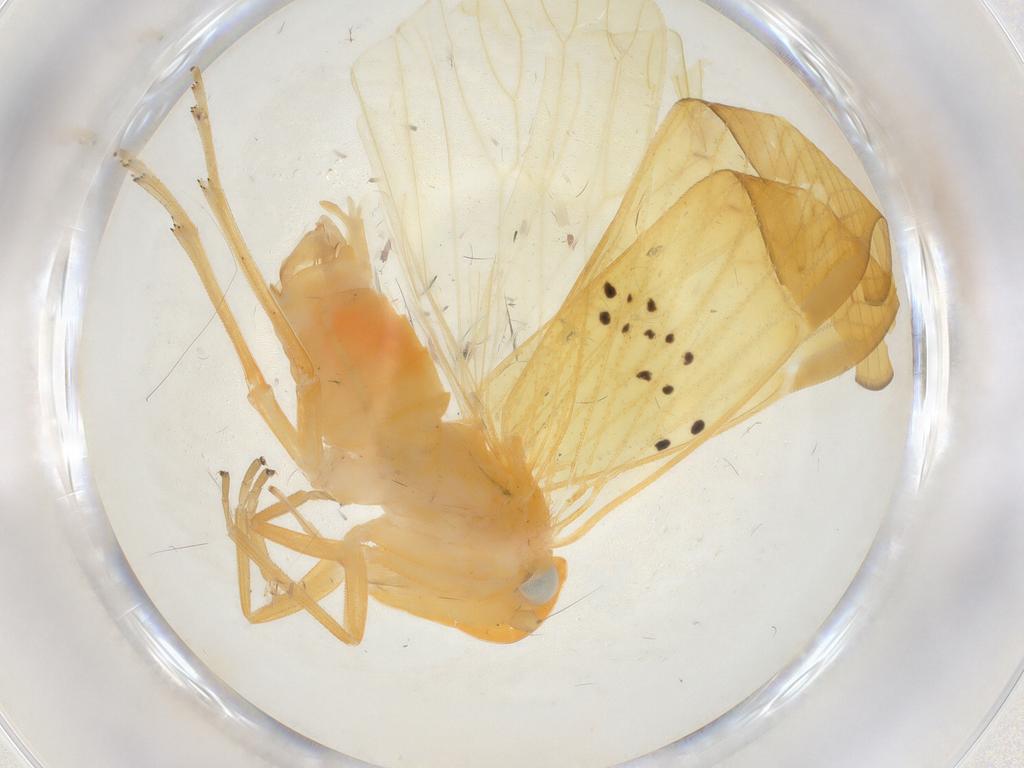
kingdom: Animalia
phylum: Arthropoda
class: Insecta
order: Hemiptera
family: Cixiidae
